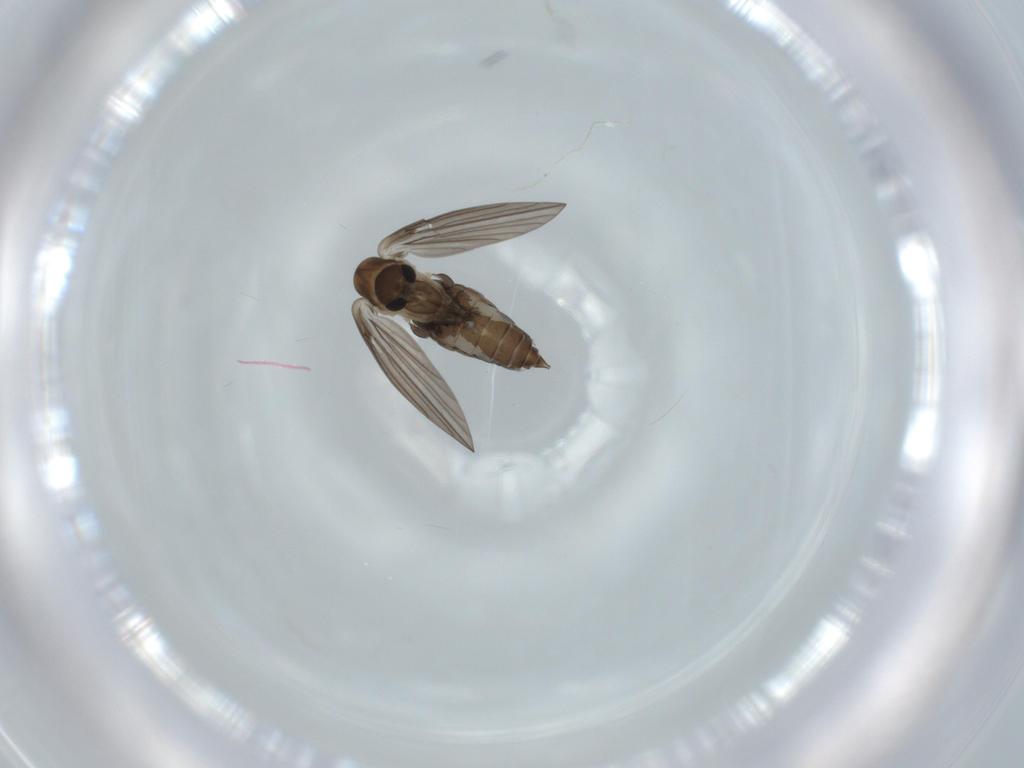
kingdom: Animalia
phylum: Arthropoda
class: Insecta
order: Diptera
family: Psychodidae
